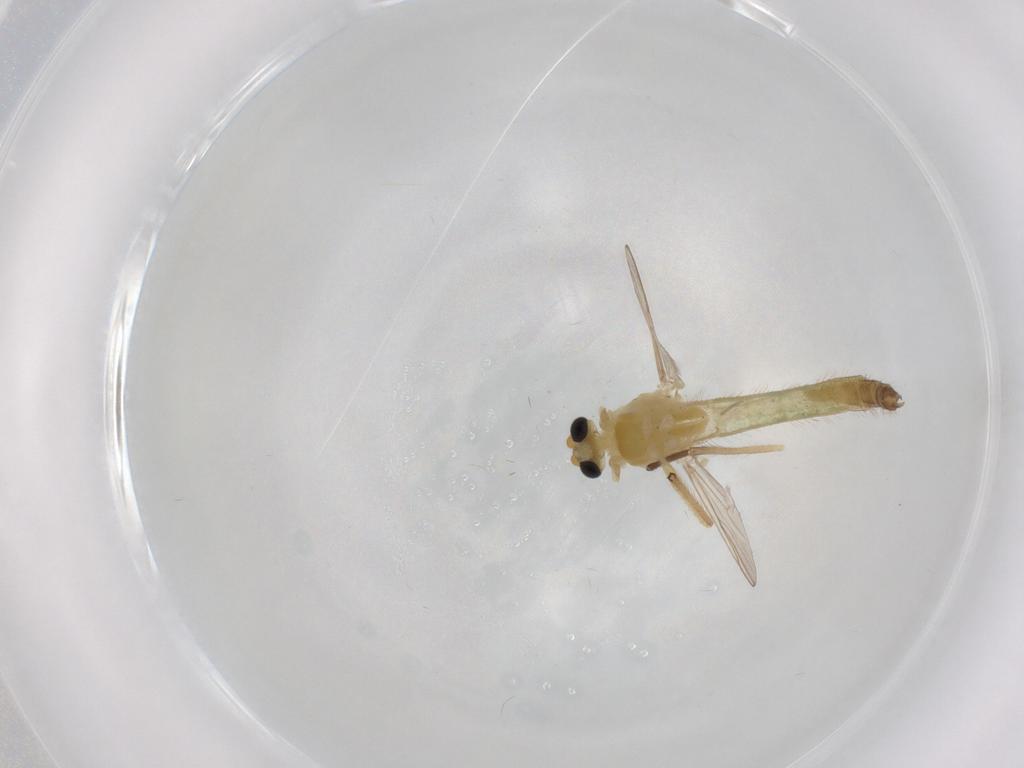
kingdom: Animalia
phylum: Arthropoda
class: Insecta
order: Diptera
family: Chironomidae
